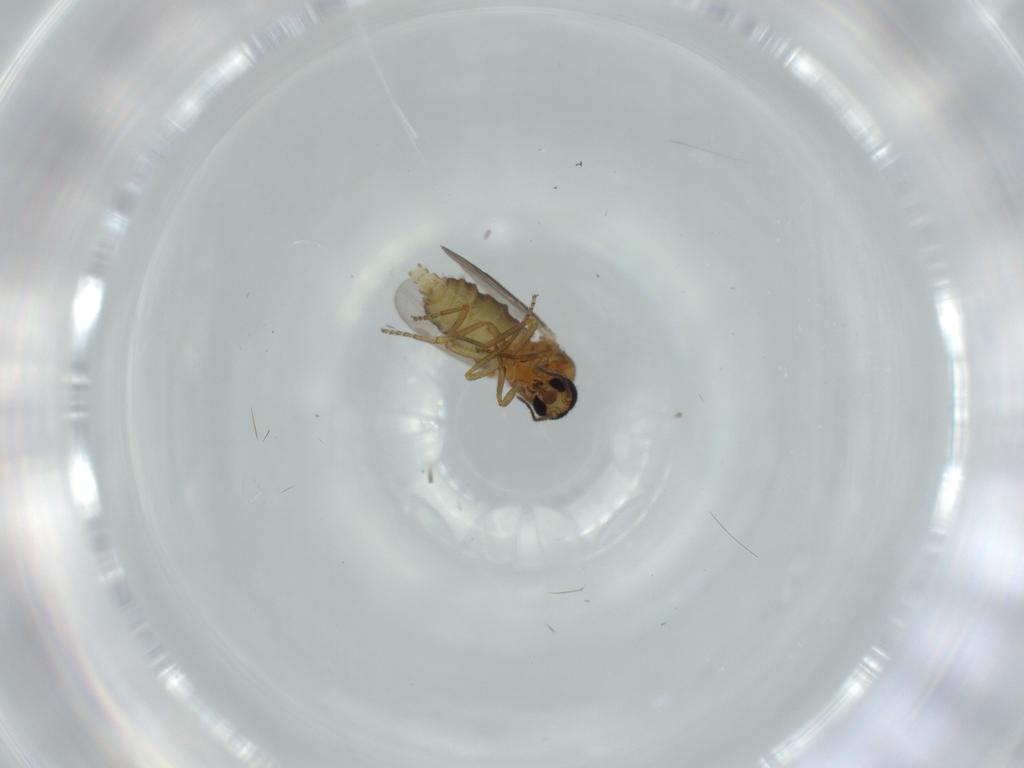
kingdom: Animalia
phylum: Arthropoda
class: Insecta
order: Diptera
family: Ceratopogonidae
